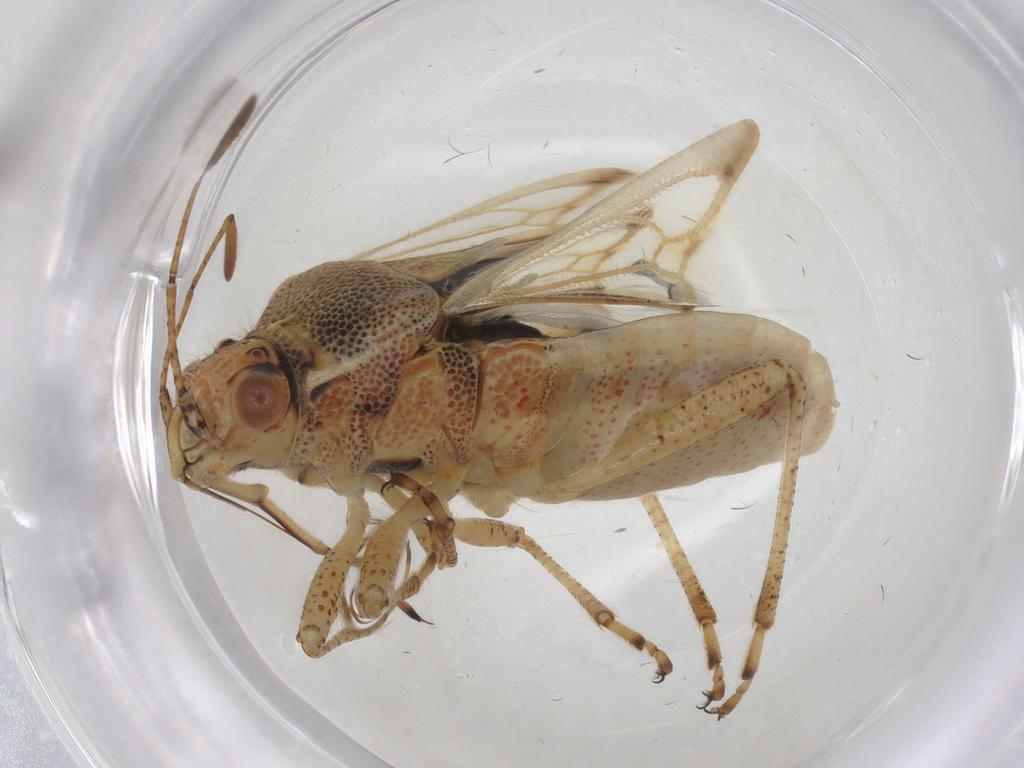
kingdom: Animalia
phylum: Arthropoda
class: Insecta
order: Hemiptera
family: Rhopalidae
